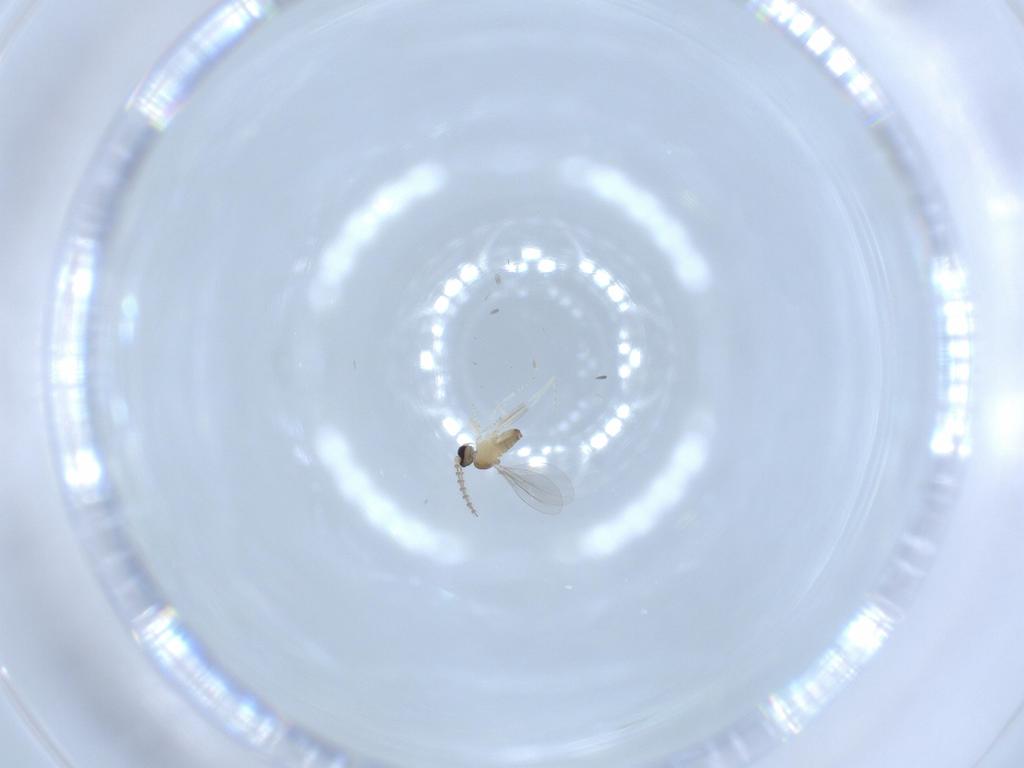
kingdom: Animalia
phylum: Arthropoda
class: Insecta
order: Diptera
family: Cecidomyiidae
